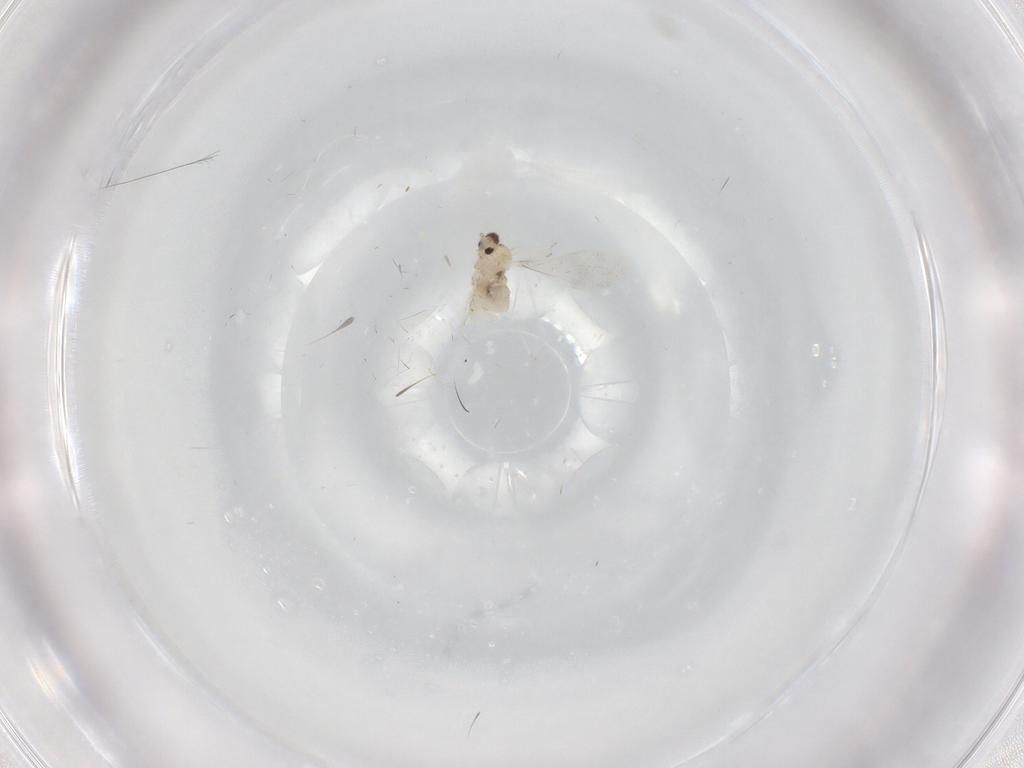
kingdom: Animalia
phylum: Arthropoda
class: Insecta
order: Diptera
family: Cecidomyiidae
